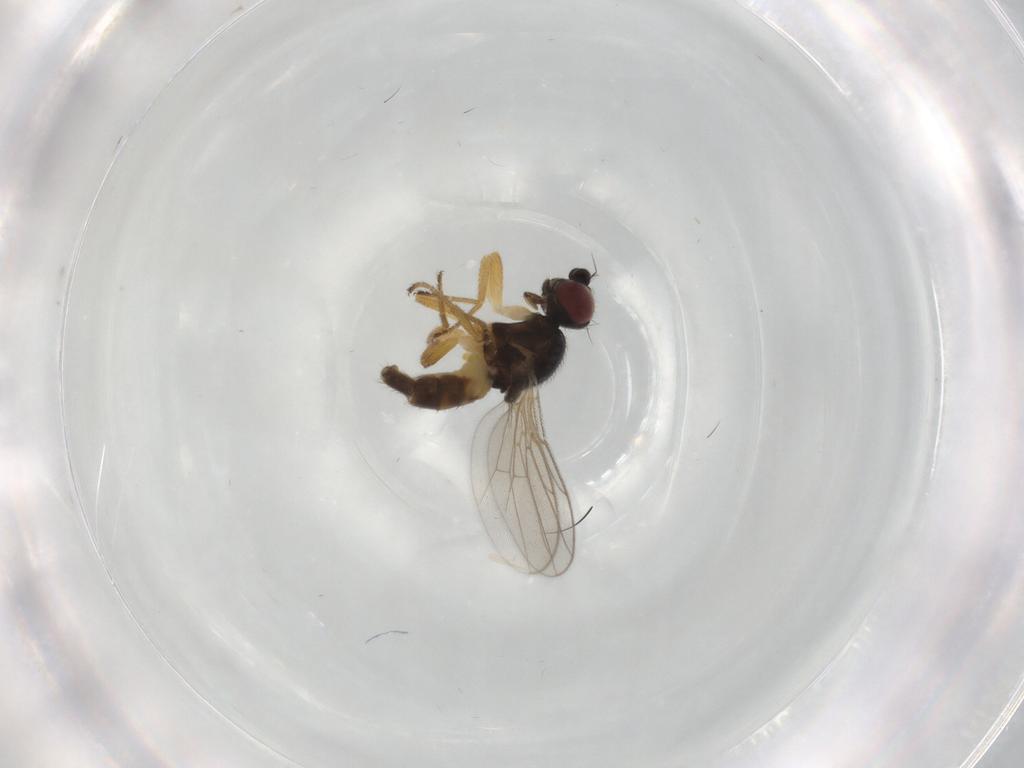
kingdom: Animalia
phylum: Arthropoda
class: Insecta
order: Diptera
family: Chloropidae
